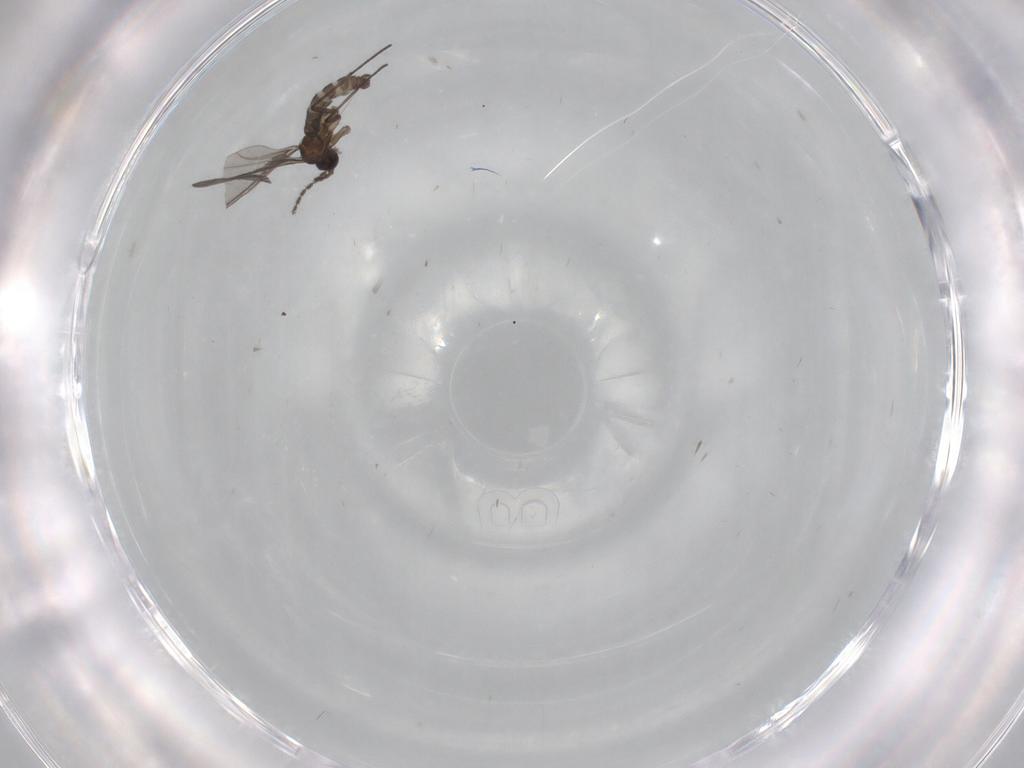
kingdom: Animalia
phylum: Arthropoda
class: Insecta
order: Diptera
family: Sciaridae
